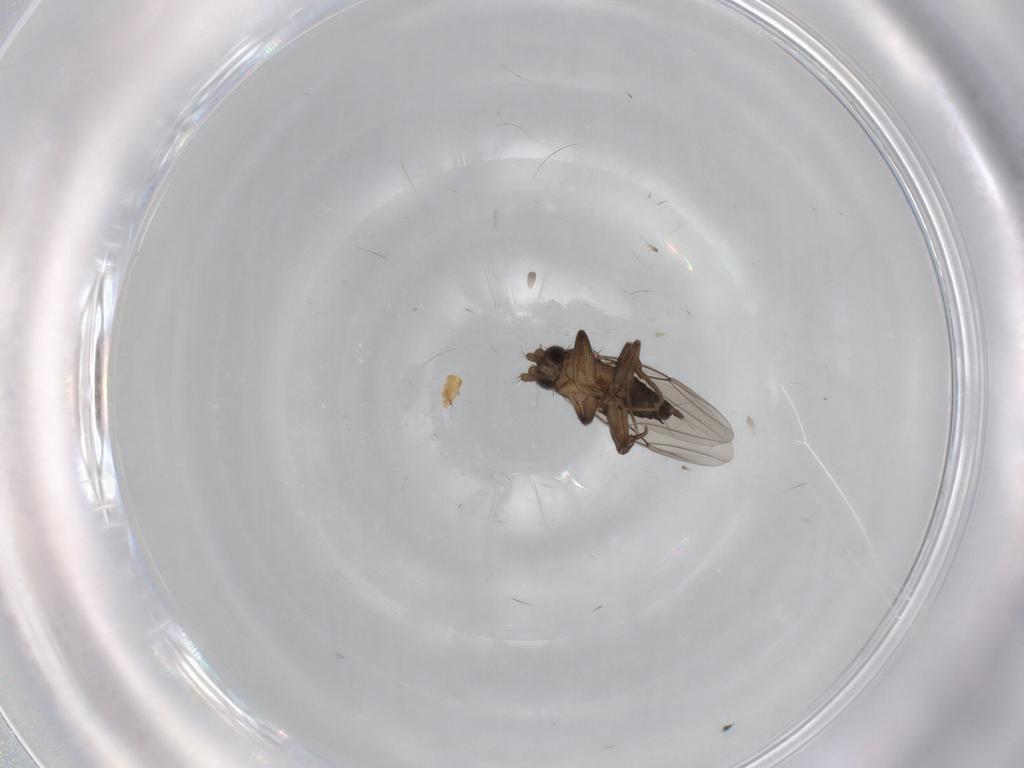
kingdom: Animalia
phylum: Arthropoda
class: Insecta
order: Diptera
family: Phoridae
